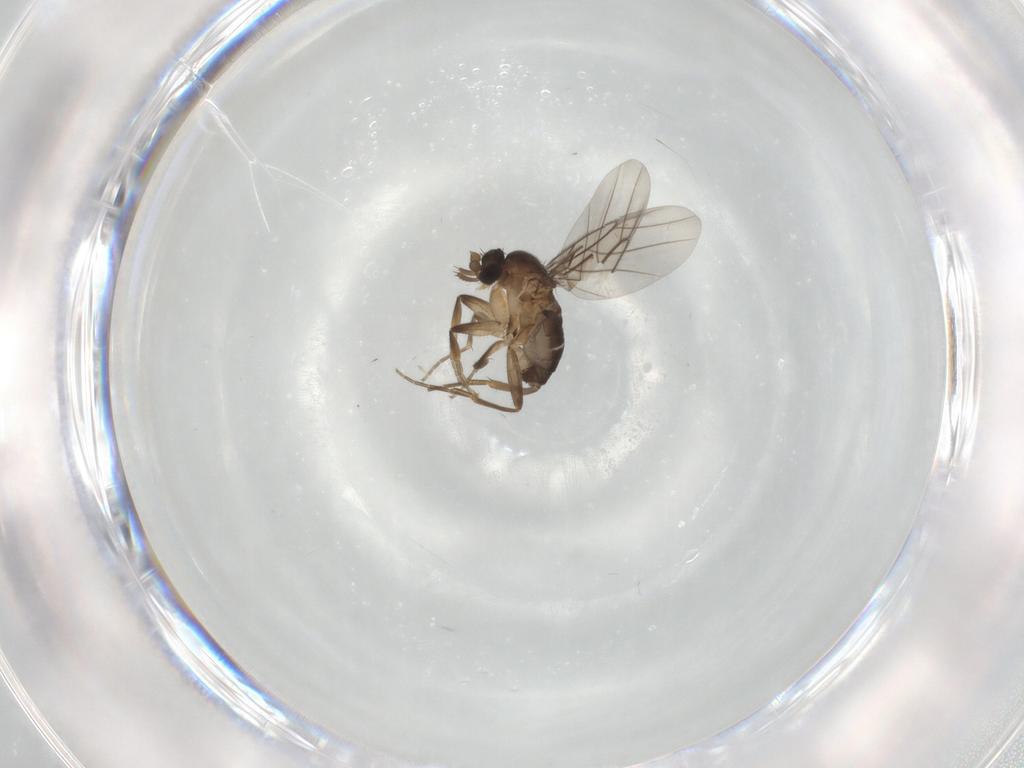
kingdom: Animalia
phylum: Arthropoda
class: Insecta
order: Diptera
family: Phoridae
